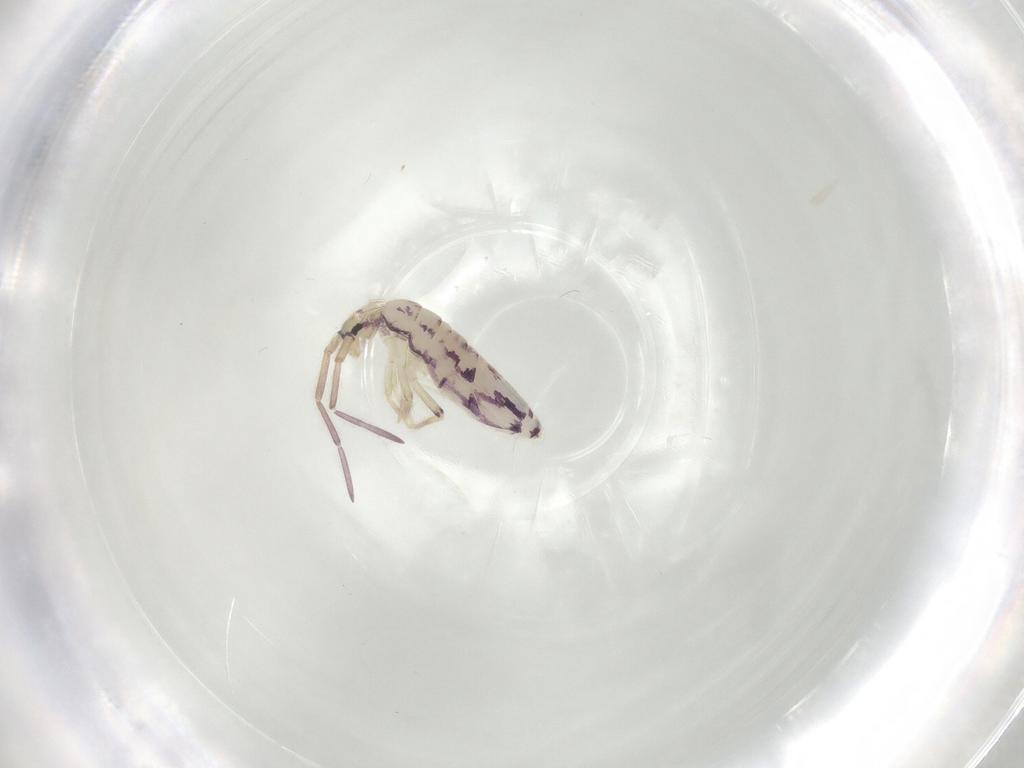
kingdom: Animalia
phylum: Arthropoda
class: Collembola
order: Entomobryomorpha
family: Entomobryidae
